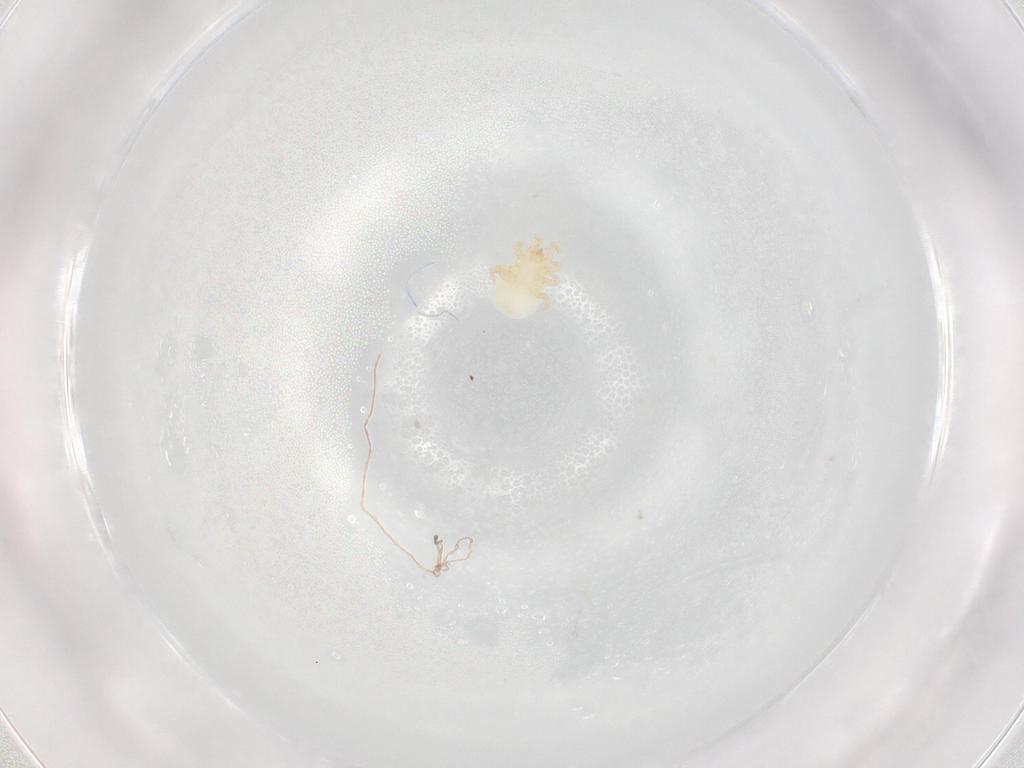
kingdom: Animalia
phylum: Arthropoda
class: Arachnida
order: Mesostigmata
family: Melicharidae
